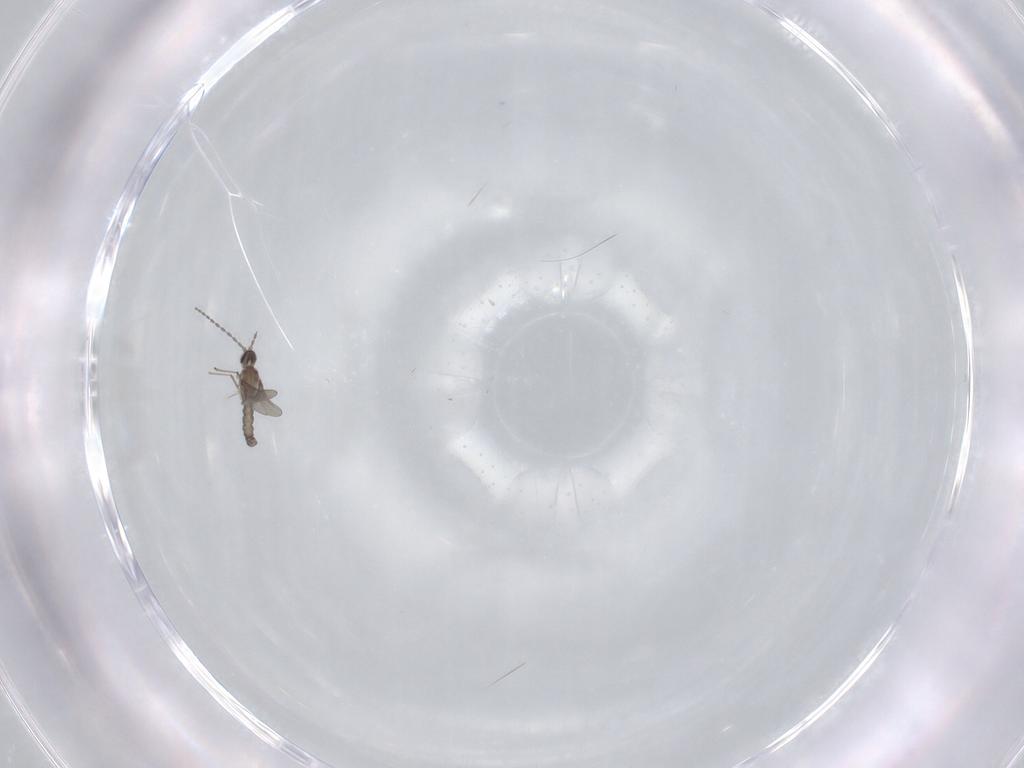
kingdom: Animalia
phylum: Arthropoda
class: Insecta
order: Diptera
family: Cecidomyiidae
